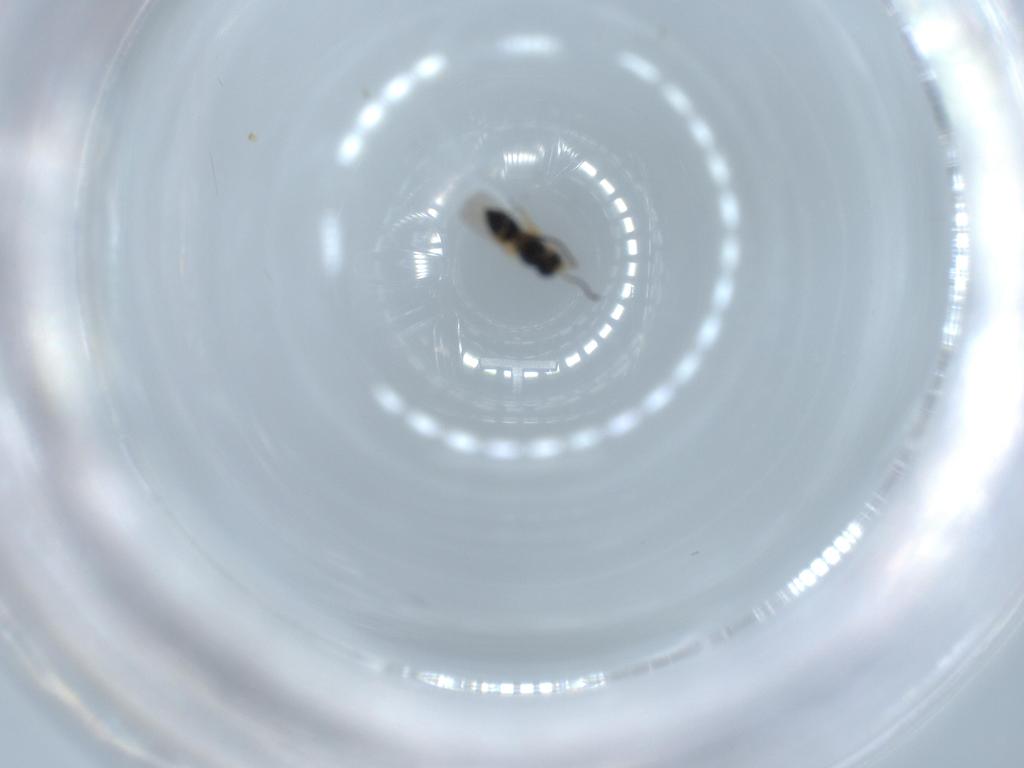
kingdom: Animalia
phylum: Arthropoda
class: Insecta
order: Hymenoptera
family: Scelionidae
